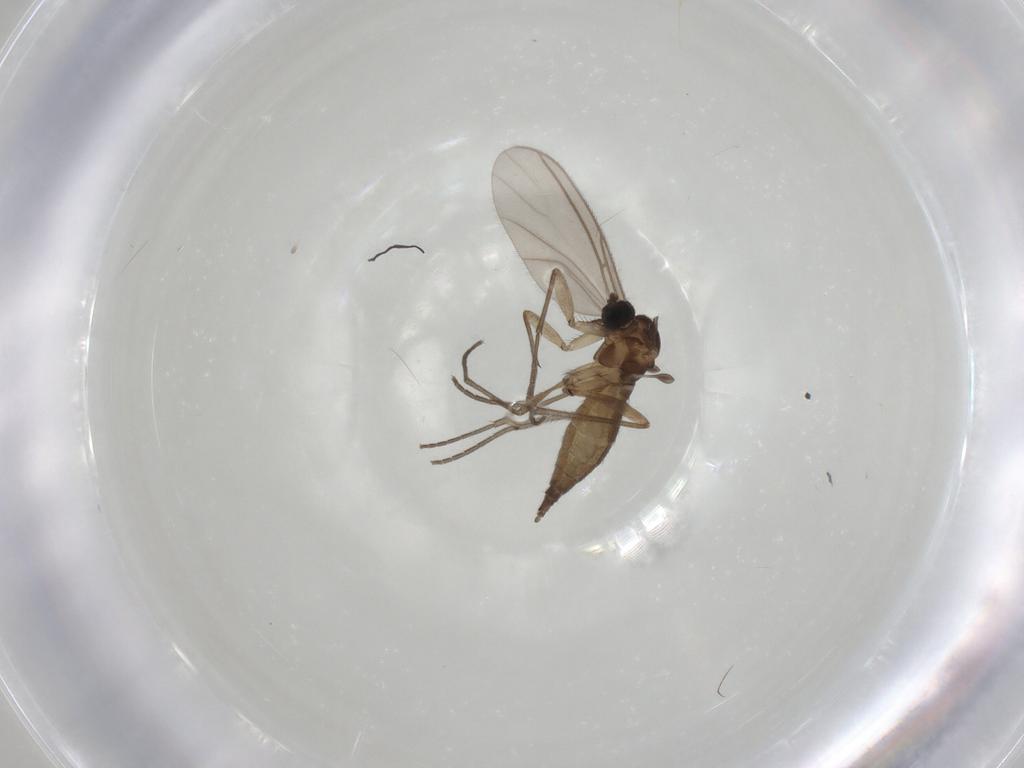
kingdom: Animalia
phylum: Arthropoda
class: Insecta
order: Diptera
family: Sciaridae
